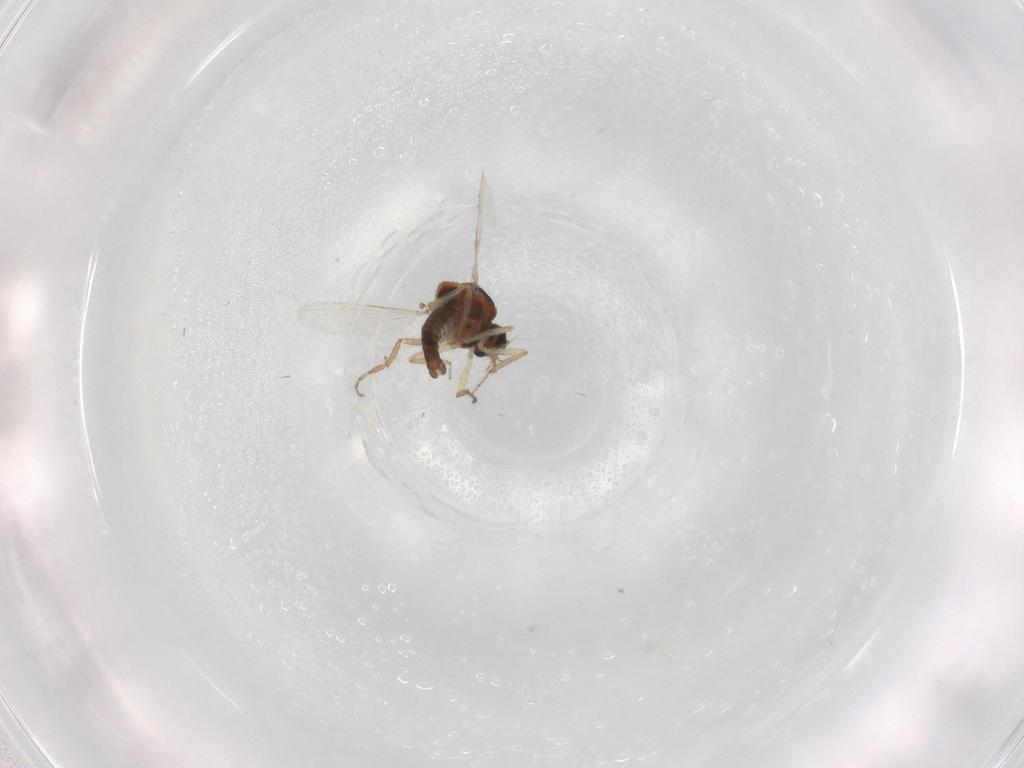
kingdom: Animalia
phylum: Arthropoda
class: Insecta
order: Diptera
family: Ceratopogonidae
